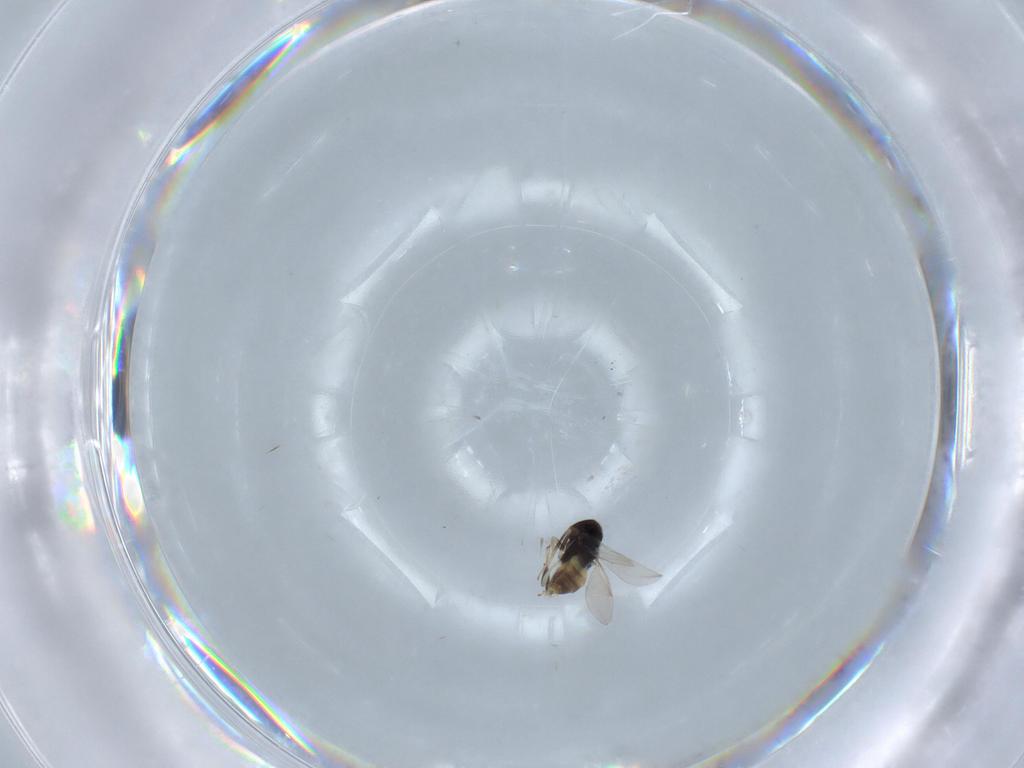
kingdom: Animalia
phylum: Arthropoda
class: Insecta
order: Hymenoptera
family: Aphelinidae
